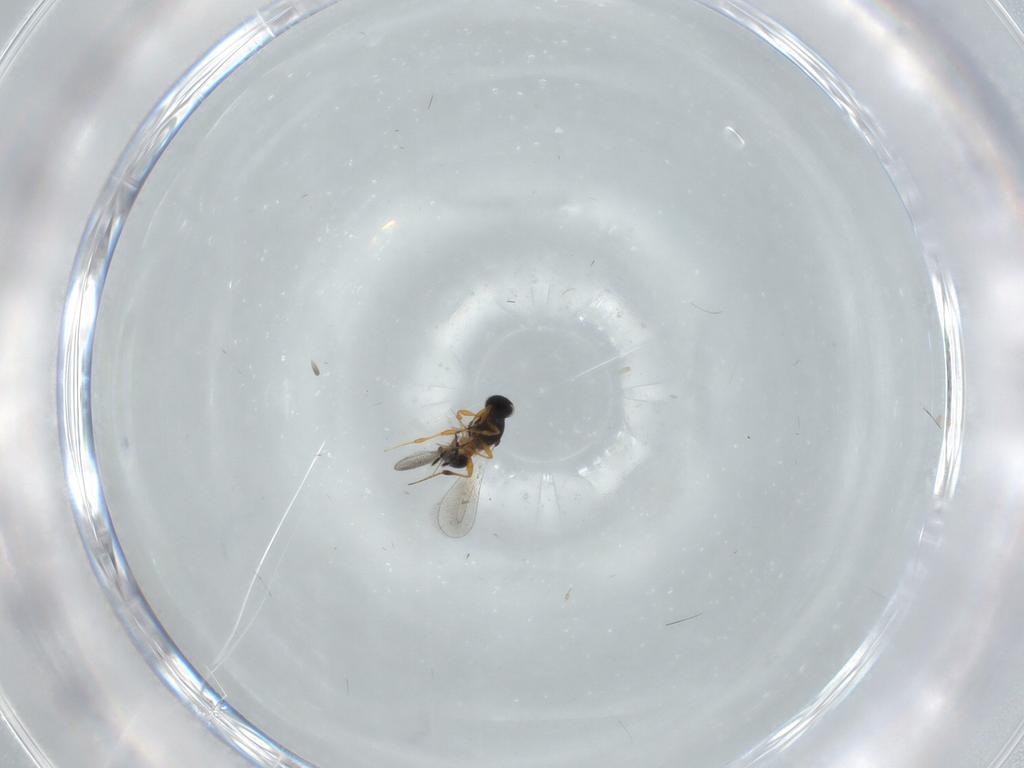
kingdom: Animalia
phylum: Arthropoda
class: Insecta
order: Hymenoptera
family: Platygastridae
